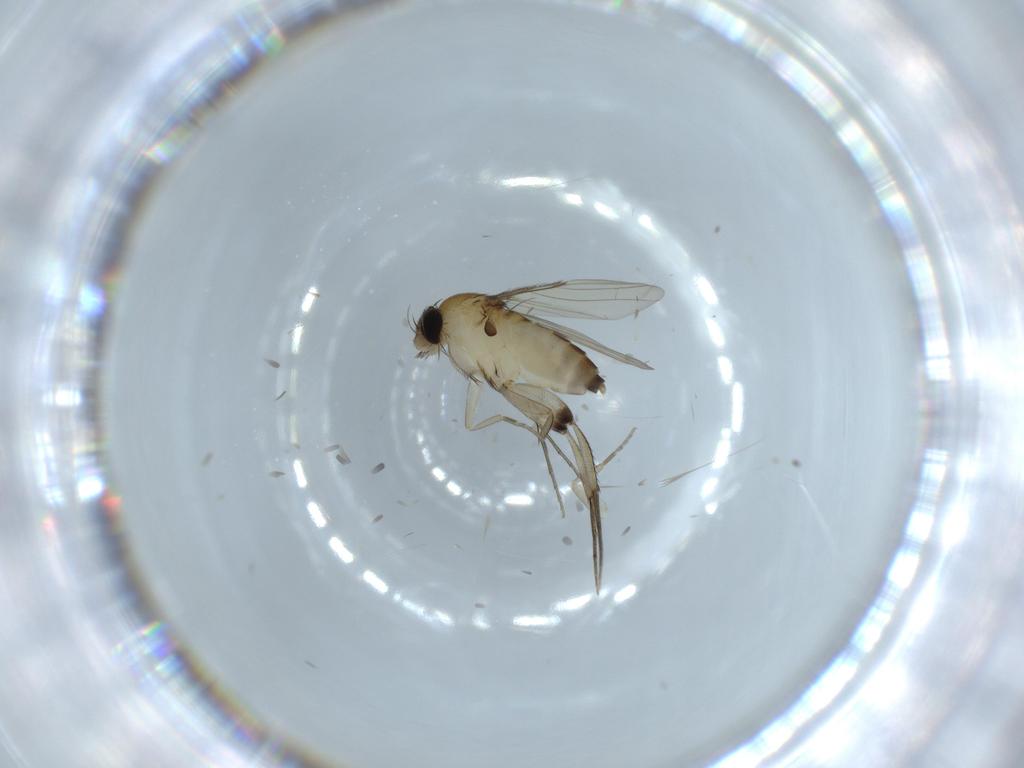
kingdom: Animalia
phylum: Arthropoda
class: Insecta
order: Diptera
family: Phoridae
